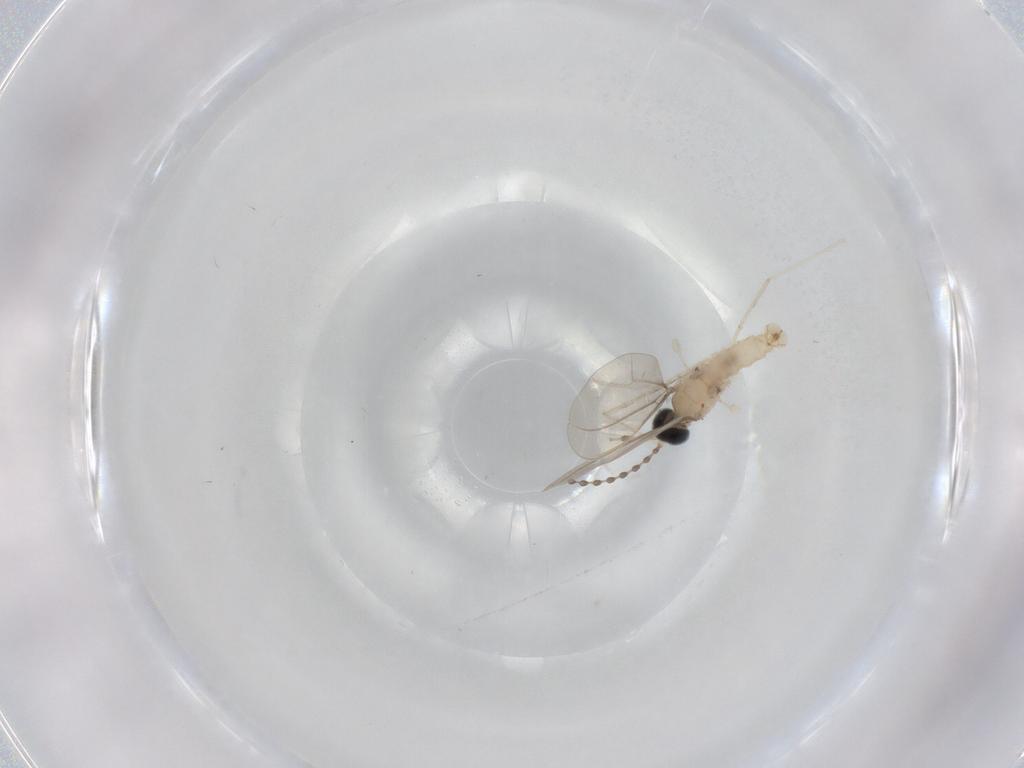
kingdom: Animalia
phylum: Arthropoda
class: Insecta
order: Diptera
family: Cecidomyiidae
